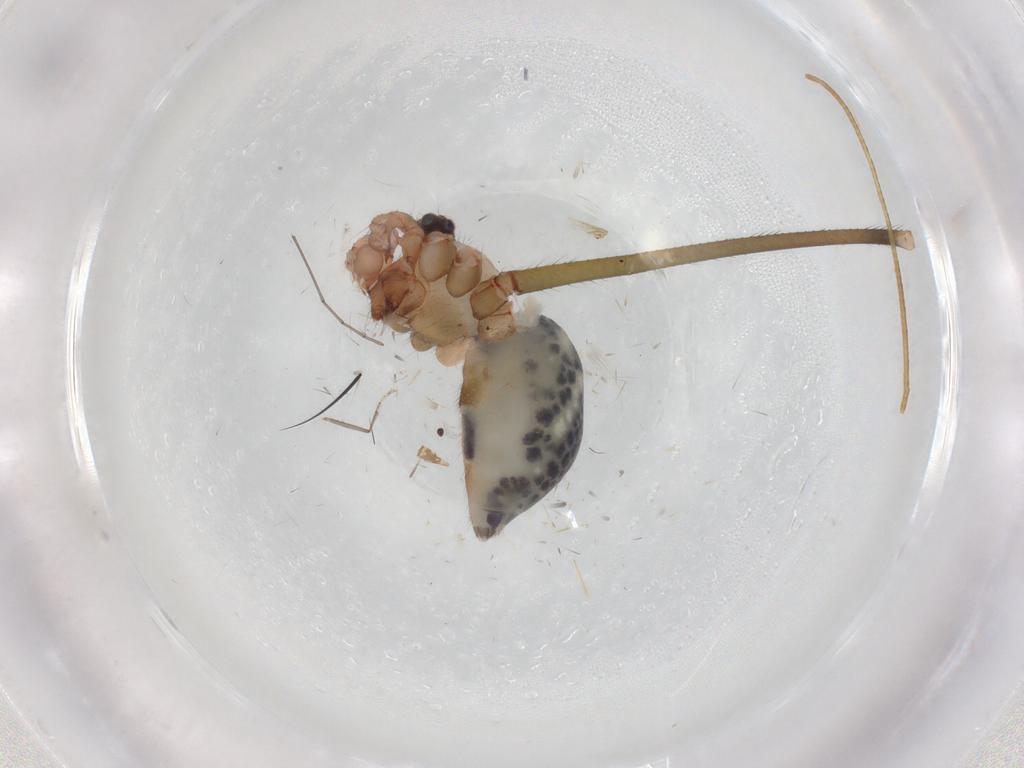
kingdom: Animalia
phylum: Arthropoda
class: Arachnida
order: Araneae
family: Pholcidae
